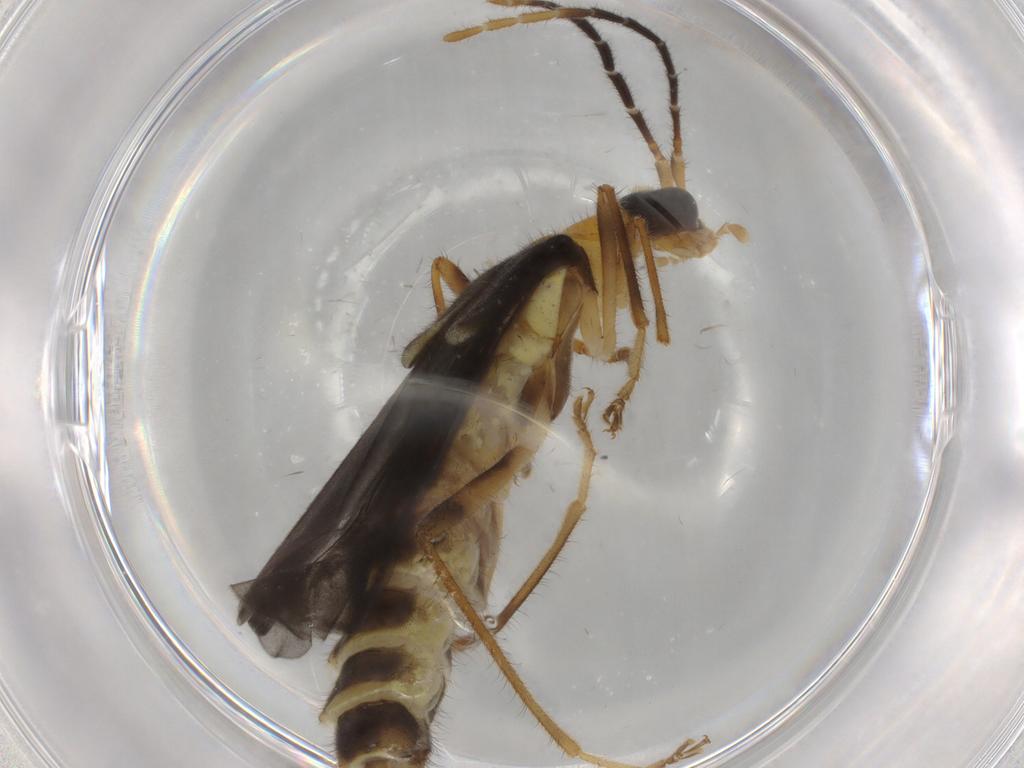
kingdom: Animalia
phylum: Arthropoda
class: Insecta
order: Coleoptera
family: Cantharidae
